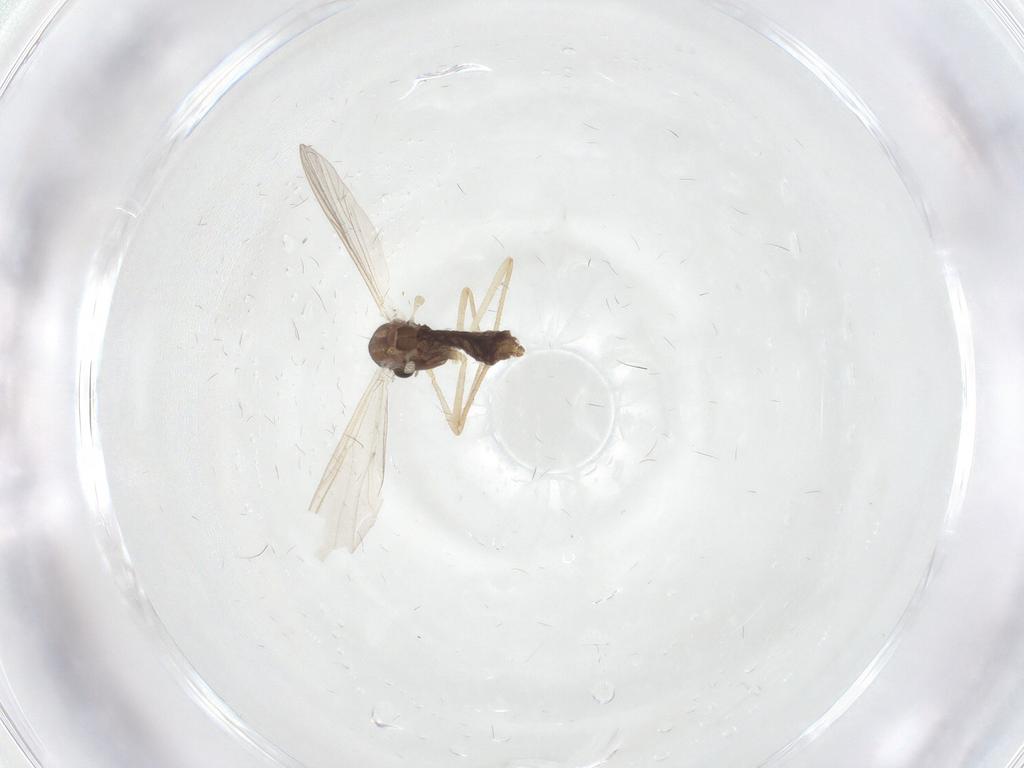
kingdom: Animalia
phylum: Arthropoda
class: Insecta
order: Diptera
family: Chironomidae
